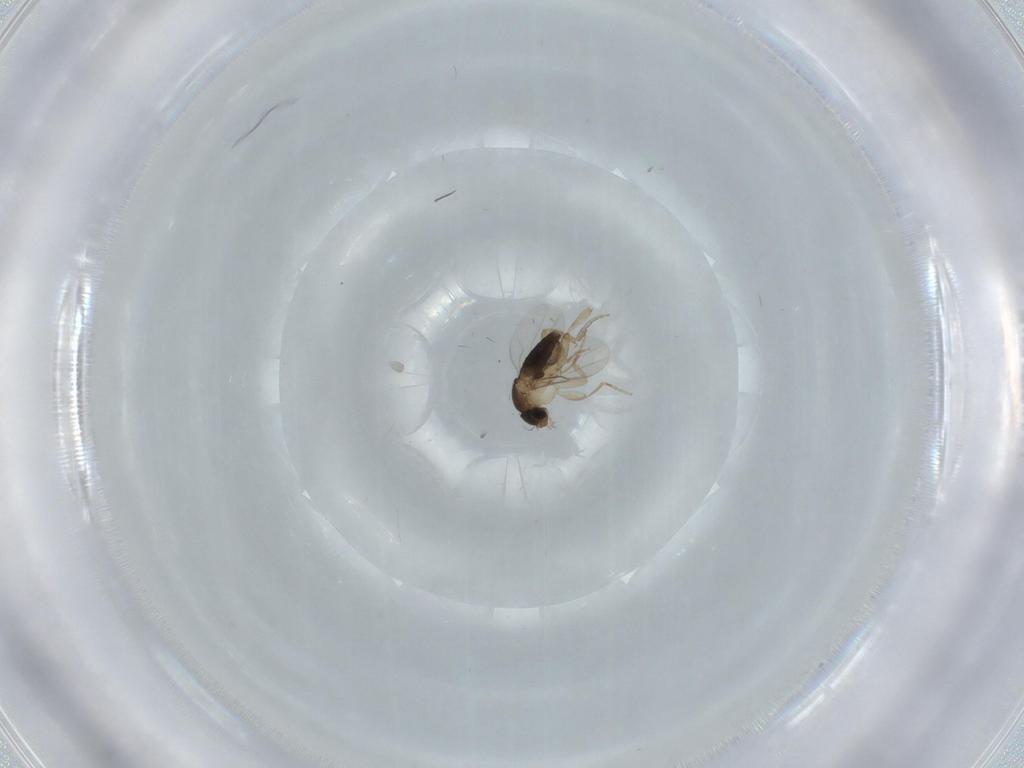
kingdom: Animalia
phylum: Arthropoda
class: Insecta
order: Diptera
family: Phoridae
